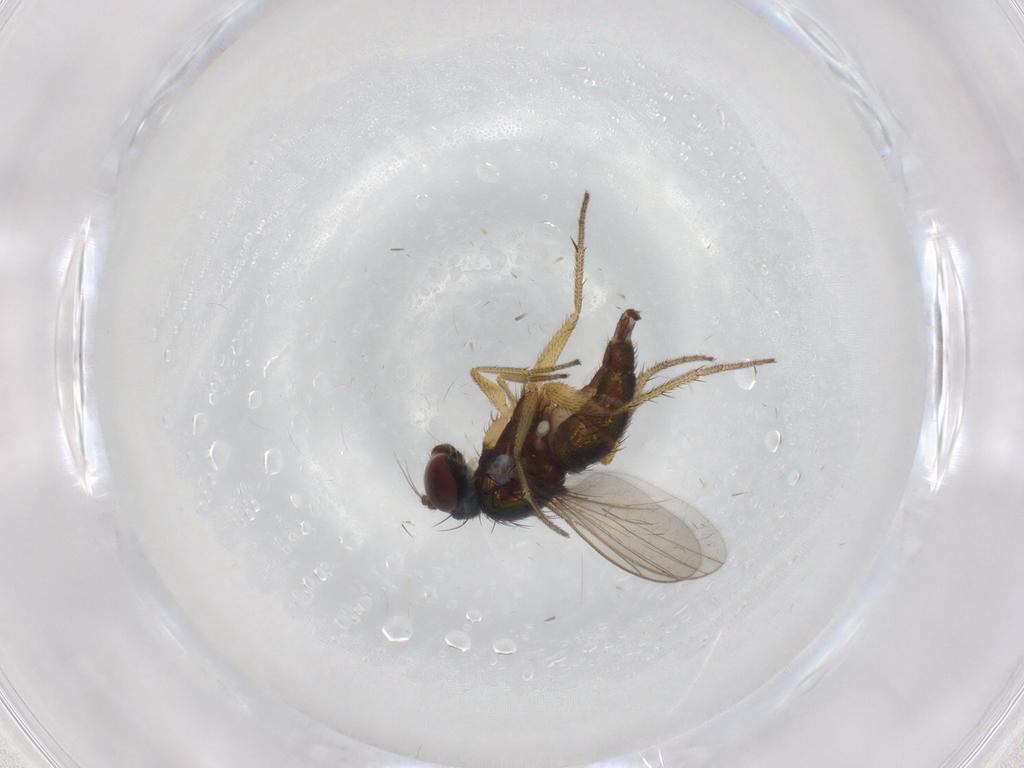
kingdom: Animalia
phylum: Arthropoda
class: Insecta
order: Diptera
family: Chironomidae
